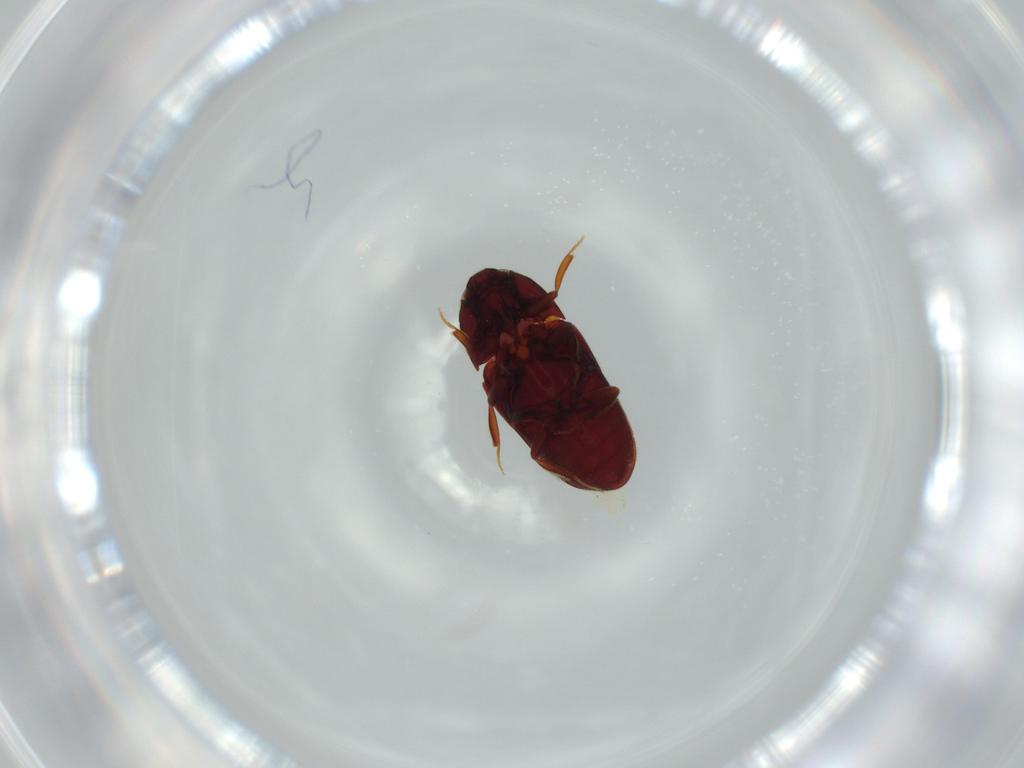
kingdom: Animalia
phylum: Arthropoda
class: Insecta
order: Coleoptera
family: Throscidae
